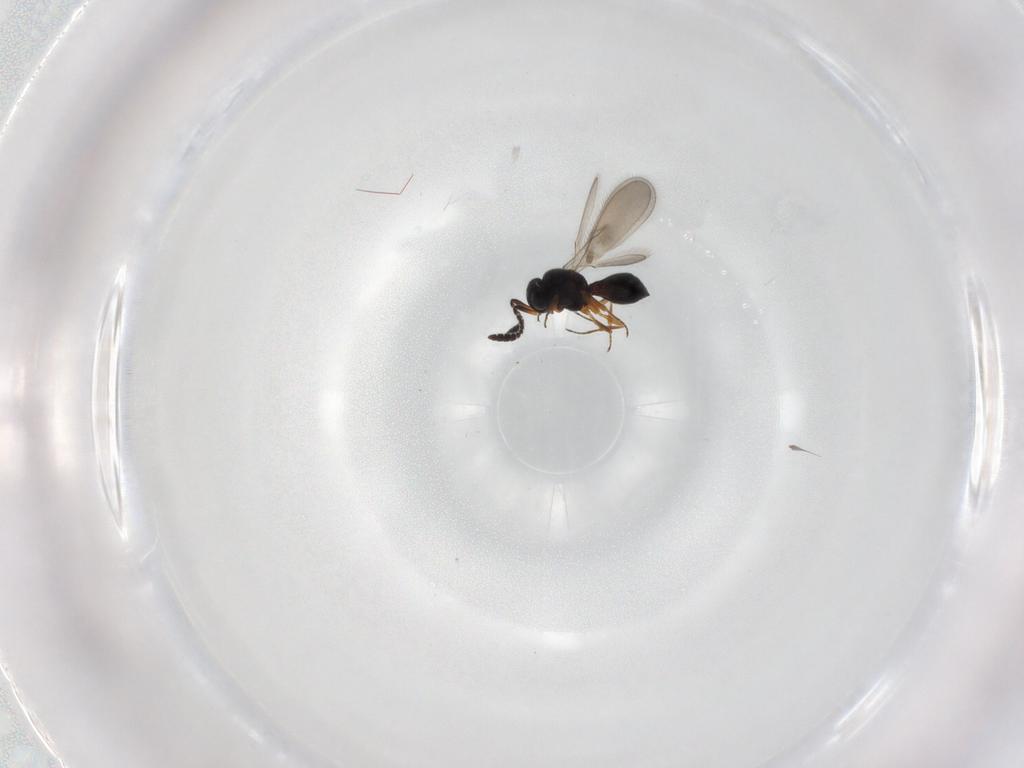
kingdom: Animalia
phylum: Arthropoda
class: Insecta
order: Hymenoptera
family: Scelionidae
